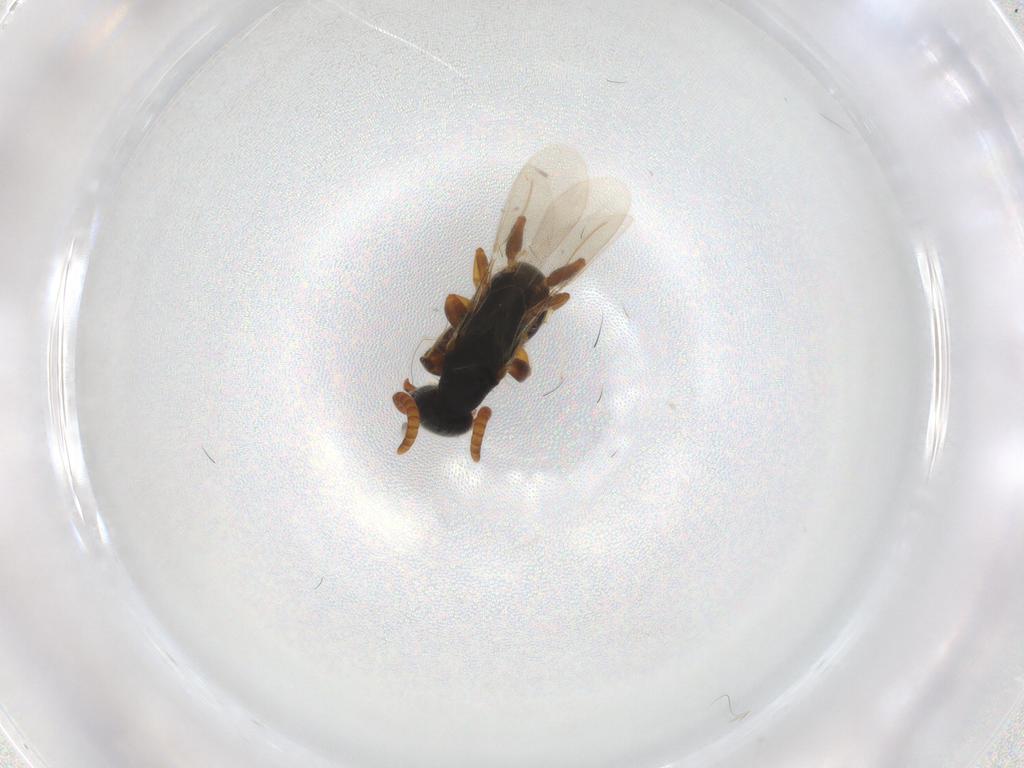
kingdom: Animalia
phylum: Arthropoda
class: Insecta
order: Hymenoptera
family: Bethylidae
